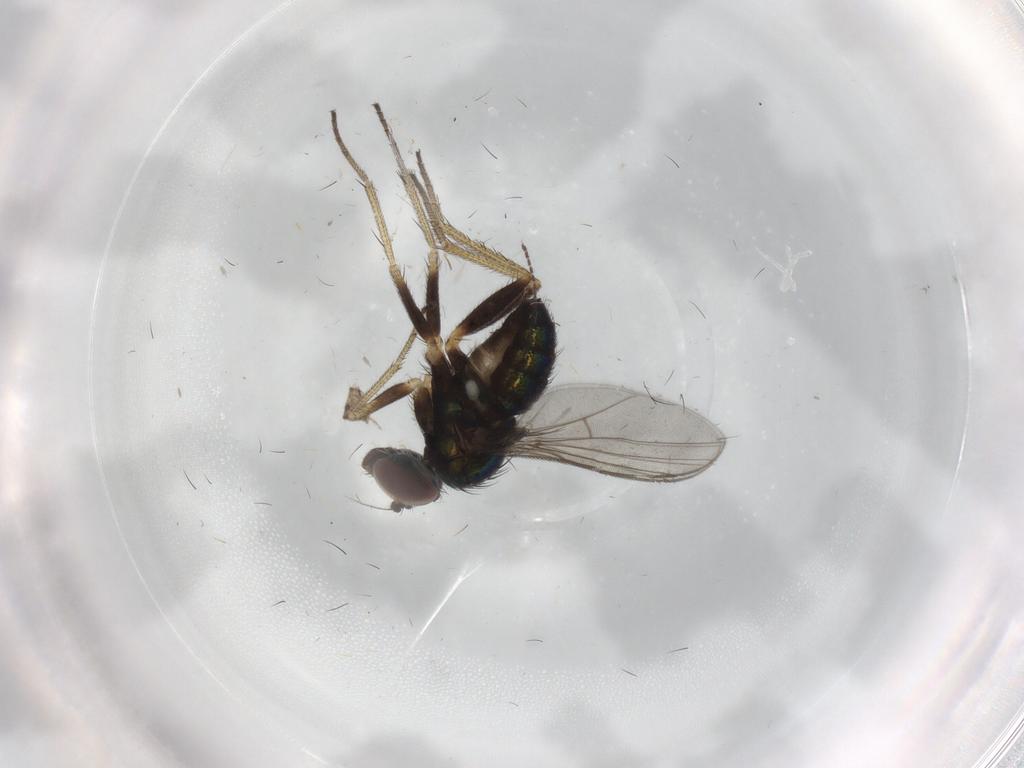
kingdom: Animalia
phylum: Arthropoda
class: Insecta
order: Diptera
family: Sciaridae
